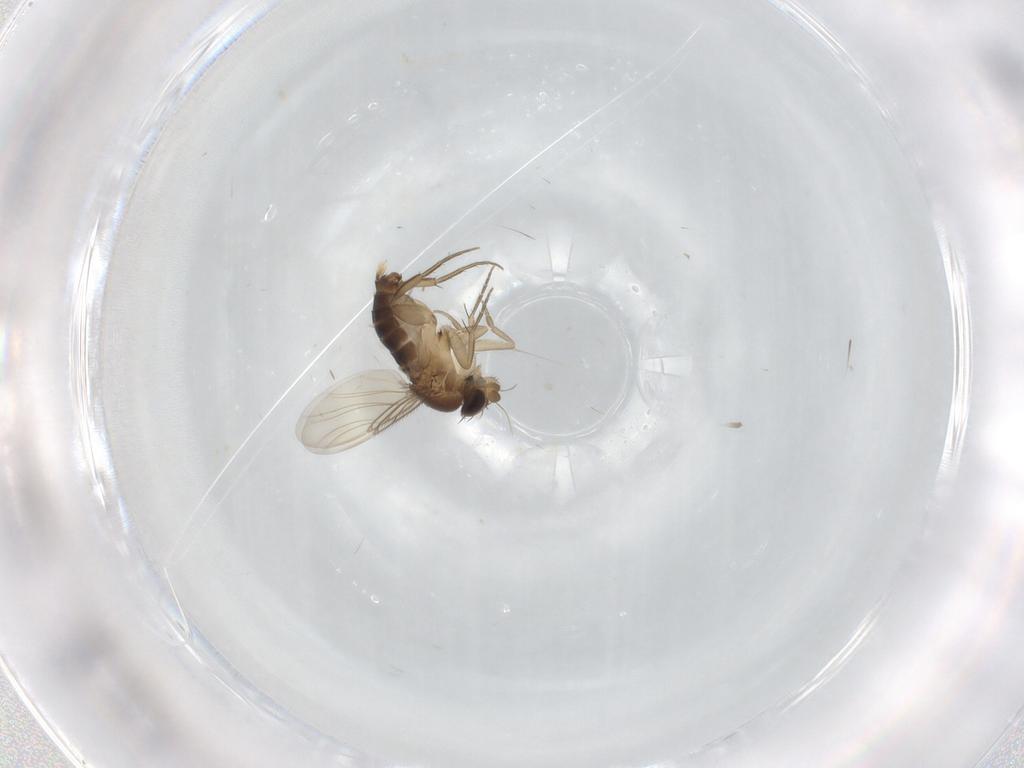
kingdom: Animalia
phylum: Arthropoda
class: Insecta
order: Diptera
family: Phoridae
